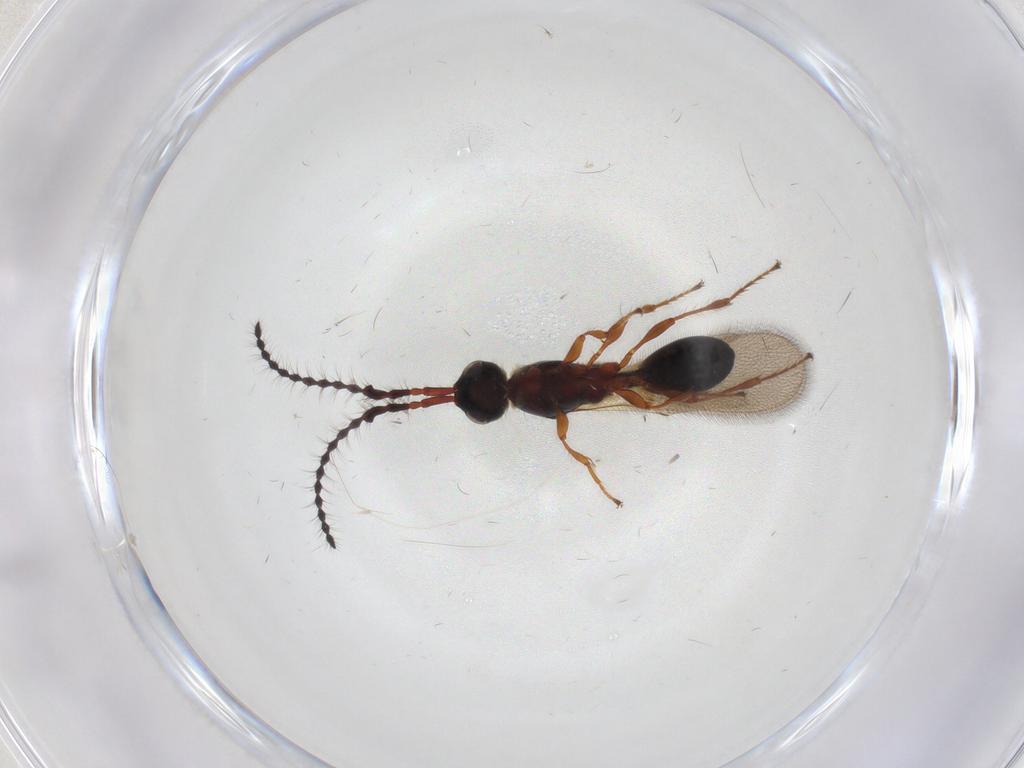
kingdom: Animalia
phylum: Arthropoda
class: Insecta
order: Hymenoptera
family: Diapriidae
